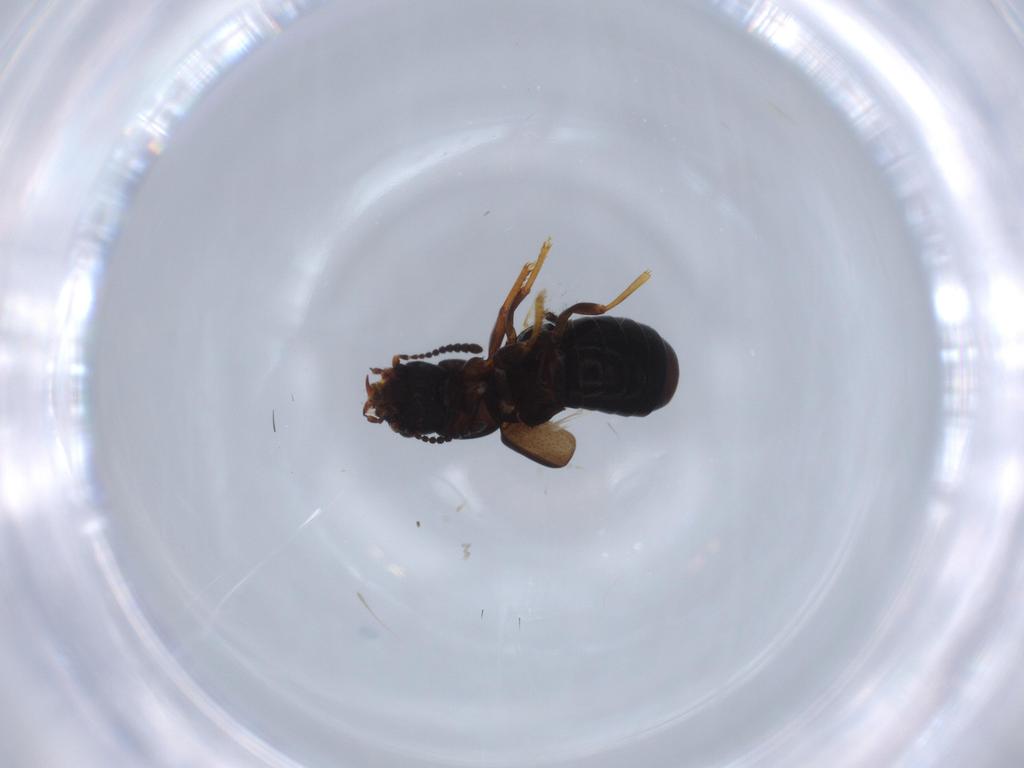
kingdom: Animalia
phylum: Arthropoda
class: Insecta
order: Coleoptera
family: Staphylinidae
